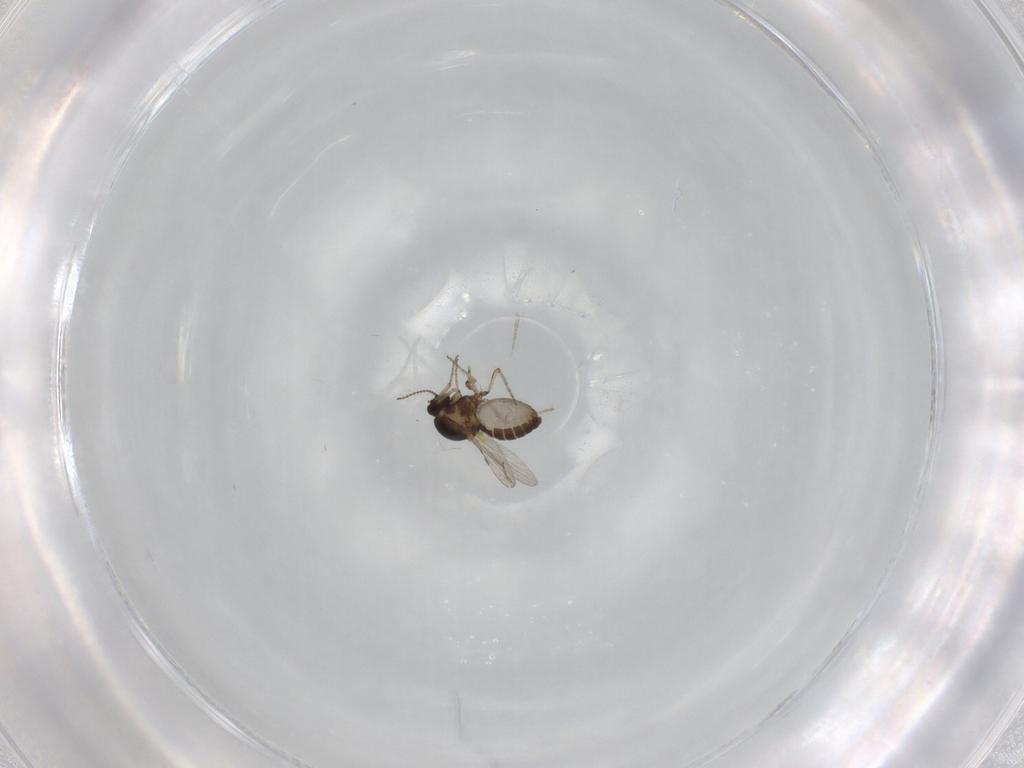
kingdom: Animalia
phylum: Arthropoda
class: Insecta
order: Diptera
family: Ceratopogonidae
